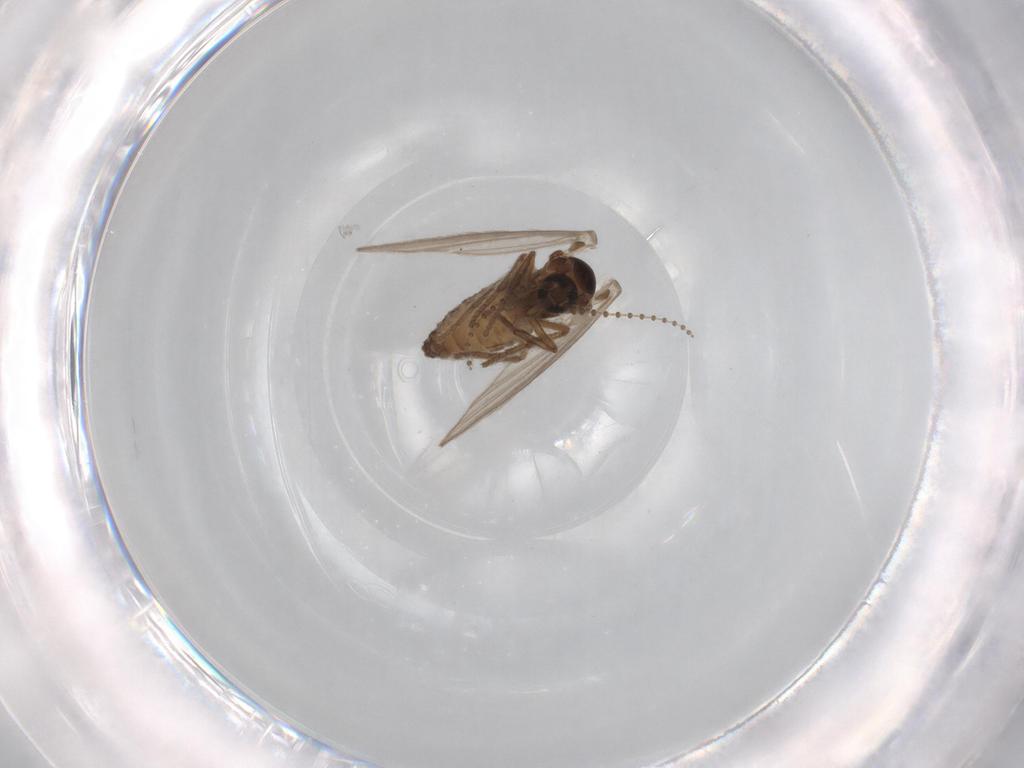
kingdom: Animalia
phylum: Arthropoda
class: Insecta
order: Diptera
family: Psychodidae
